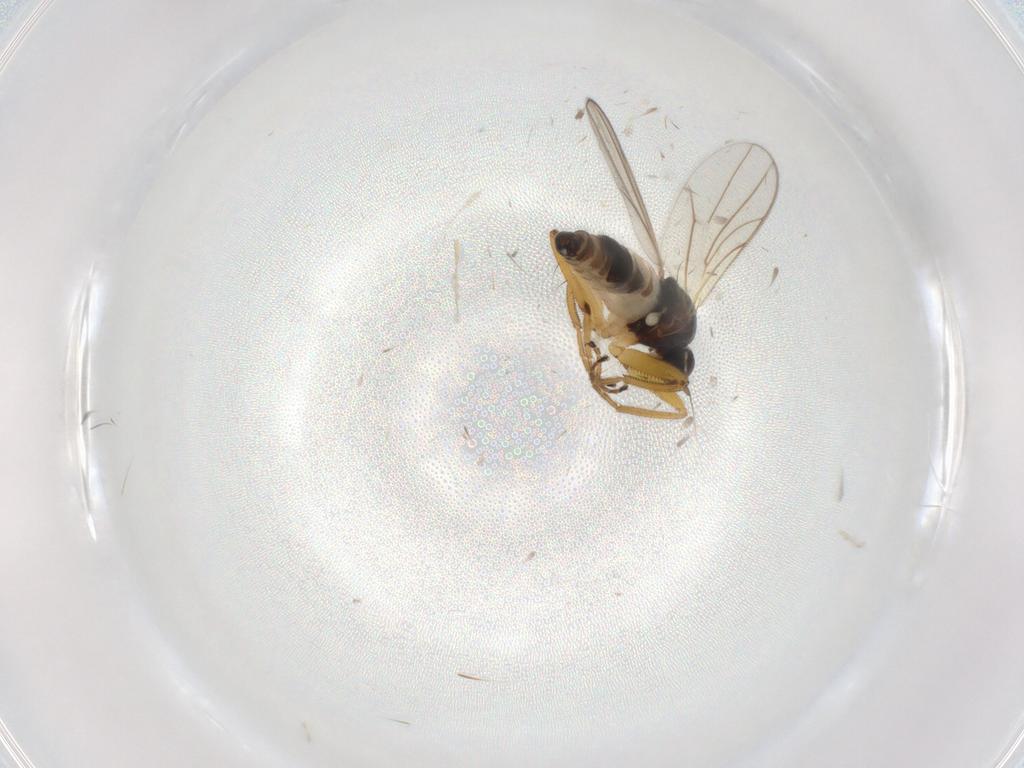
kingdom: Animalia
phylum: Arthropoda
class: Insecta
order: Diptera
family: Hybotidae
